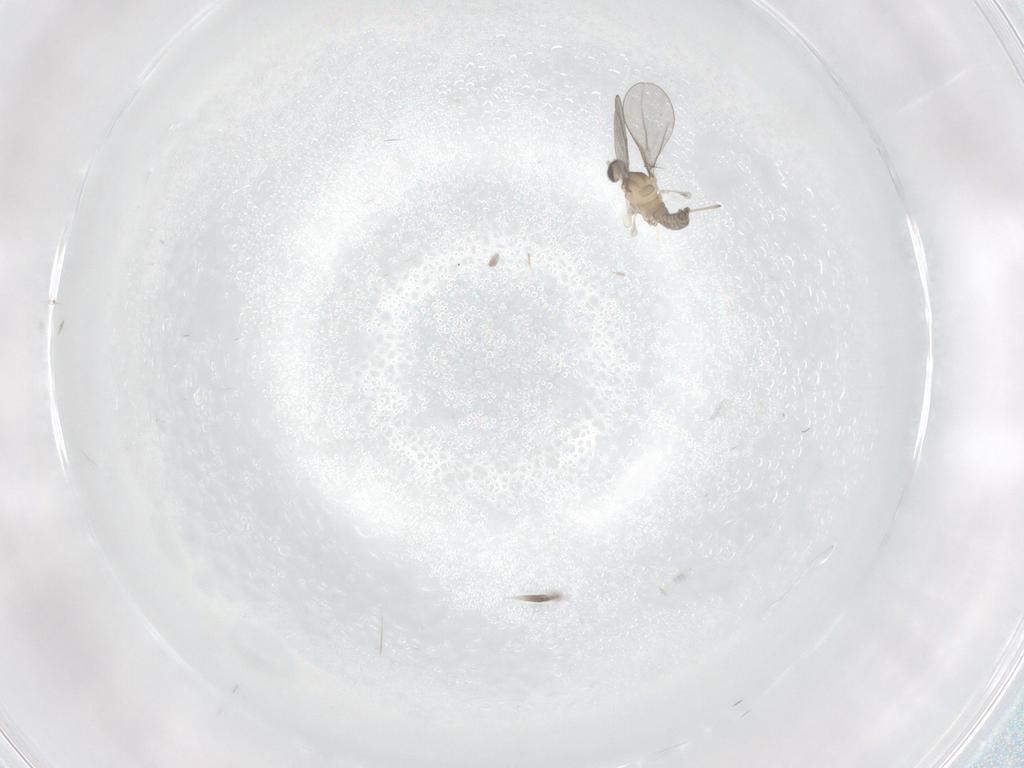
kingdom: Animalia
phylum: Arthropoda
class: Insecta
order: Diptera
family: Cecidomyiidae
